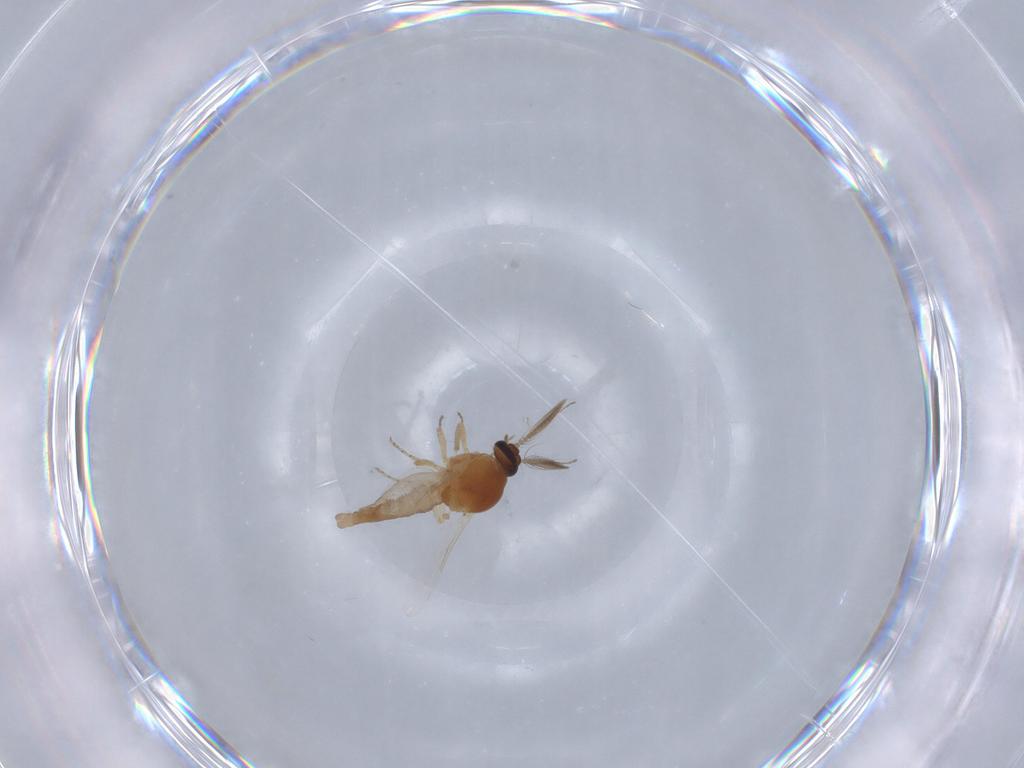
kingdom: Animalia
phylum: Arthropoda
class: Insecta
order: Diptera
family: Ceratopogonidae
